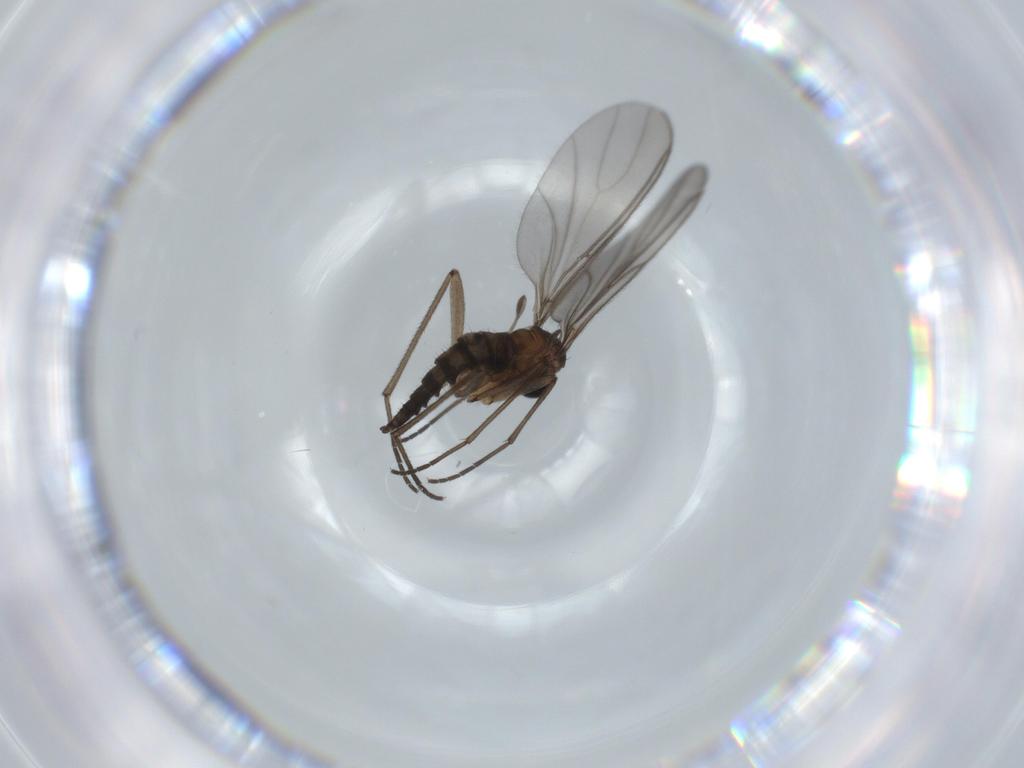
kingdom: Animalia
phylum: Arthropoda
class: Insecta
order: Diptera
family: Sciaridae
